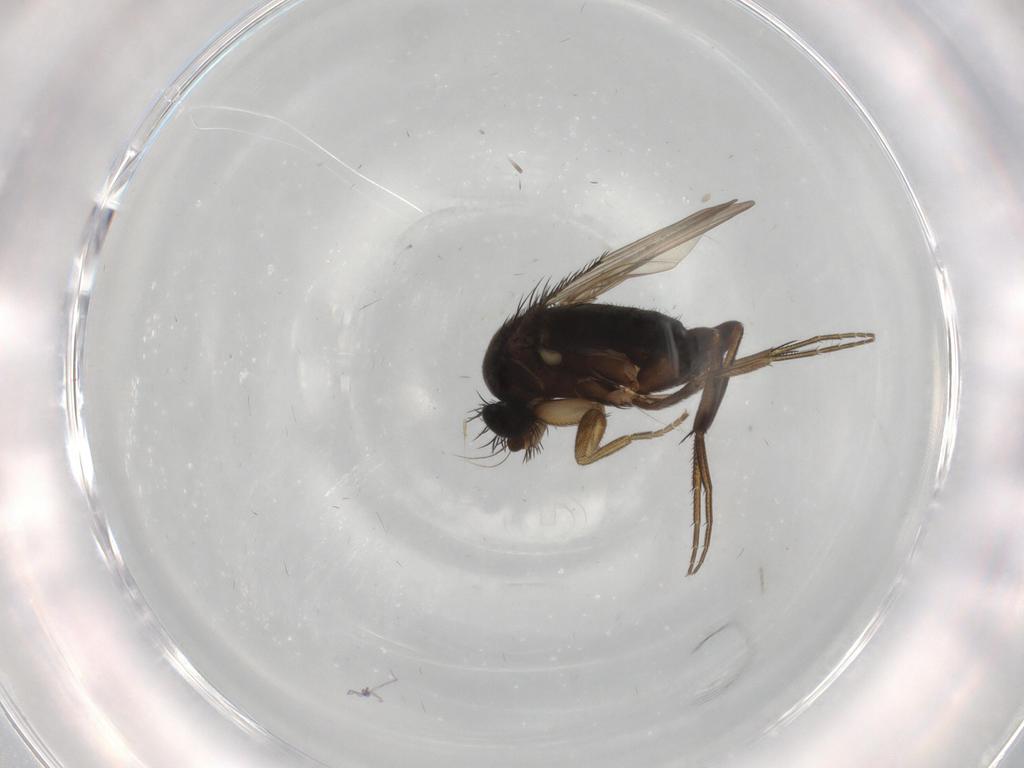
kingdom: Animalia
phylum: Arthropoda
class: Insecta
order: Diptera
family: Phoridae
